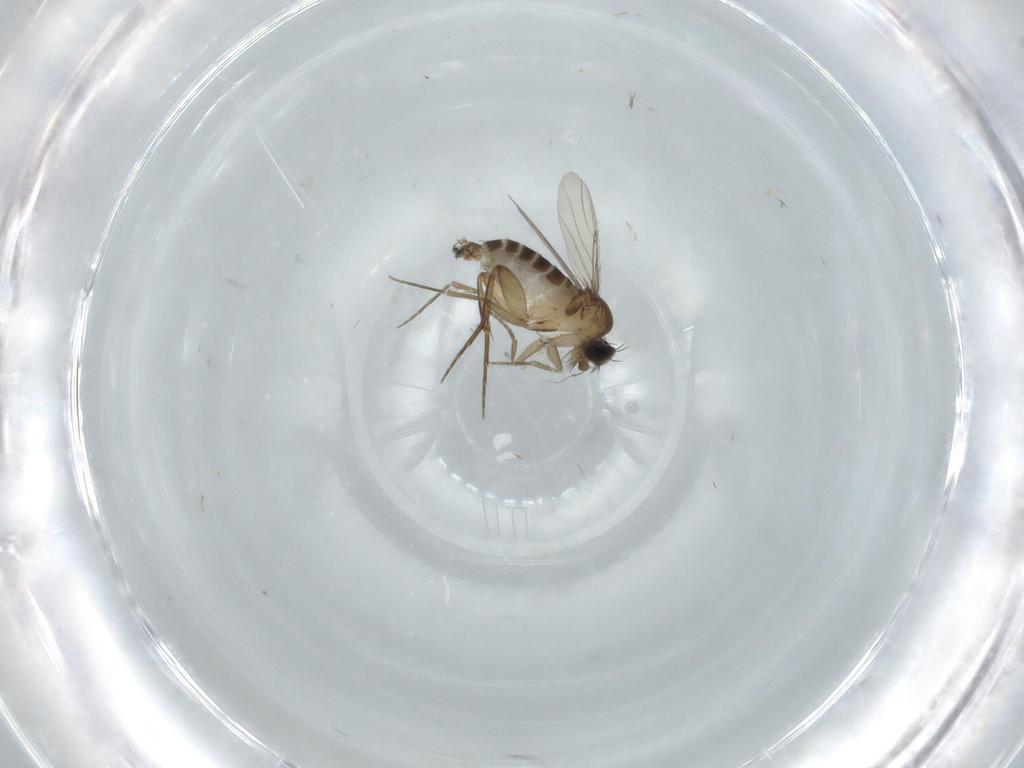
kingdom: Animalia
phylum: Arthropoda
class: Insecta
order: Diptera
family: Phoridae
